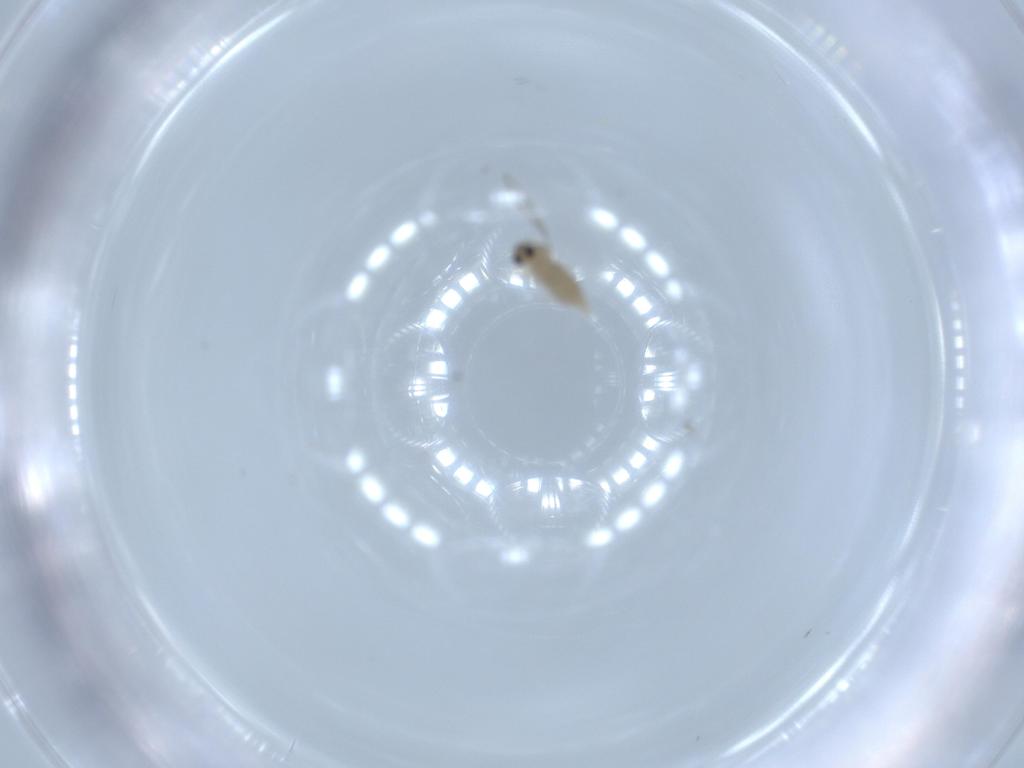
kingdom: Animalia
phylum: Arthropoda
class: Insecta
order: Diptera
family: Cecidomyiidae
